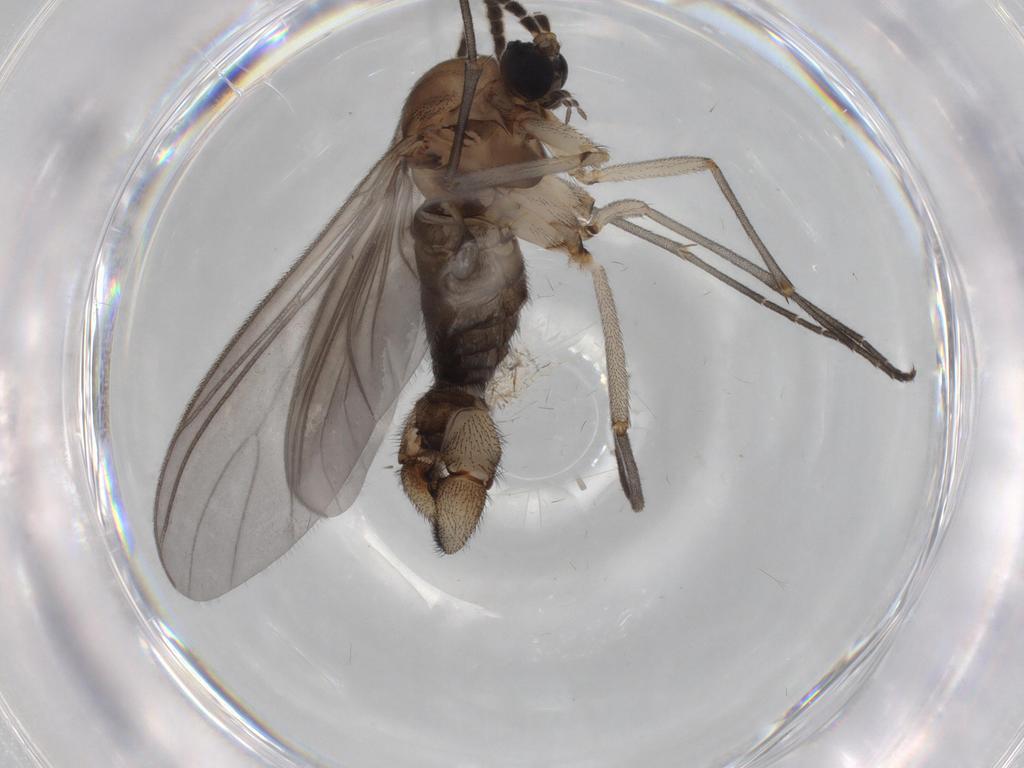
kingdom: Animalia
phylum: Arthropoda
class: Insecta
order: Diptera
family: Sciaridae
